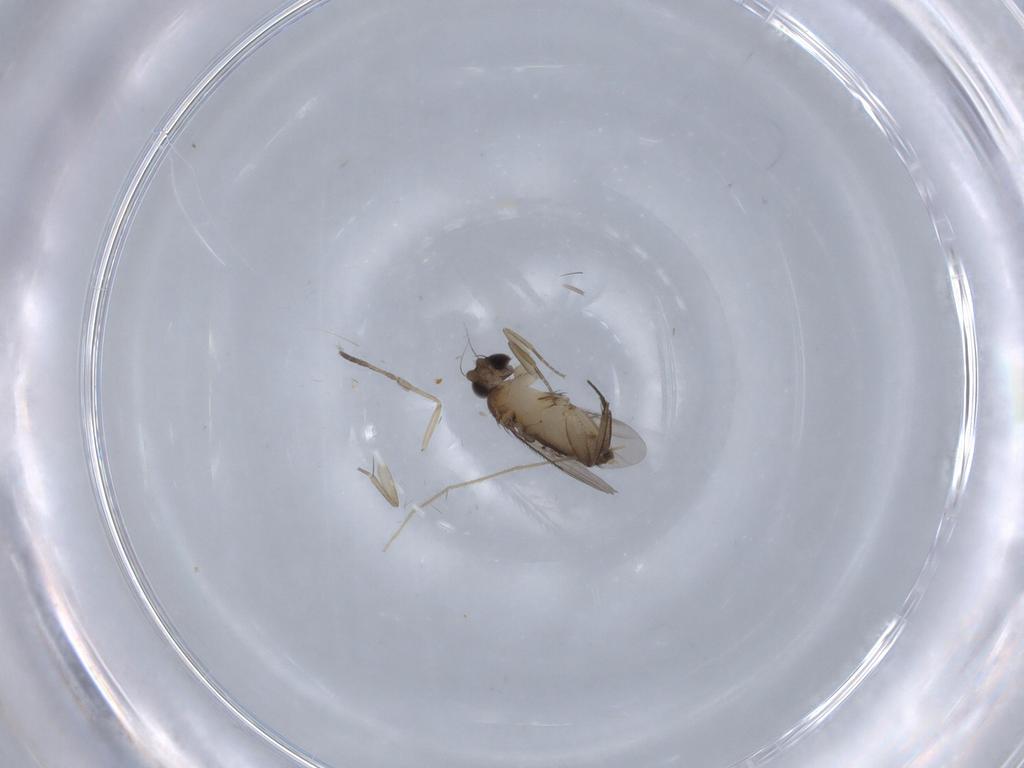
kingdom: Animalia
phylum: Arthropoda
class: Insecta
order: Diptera
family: Phoridae
